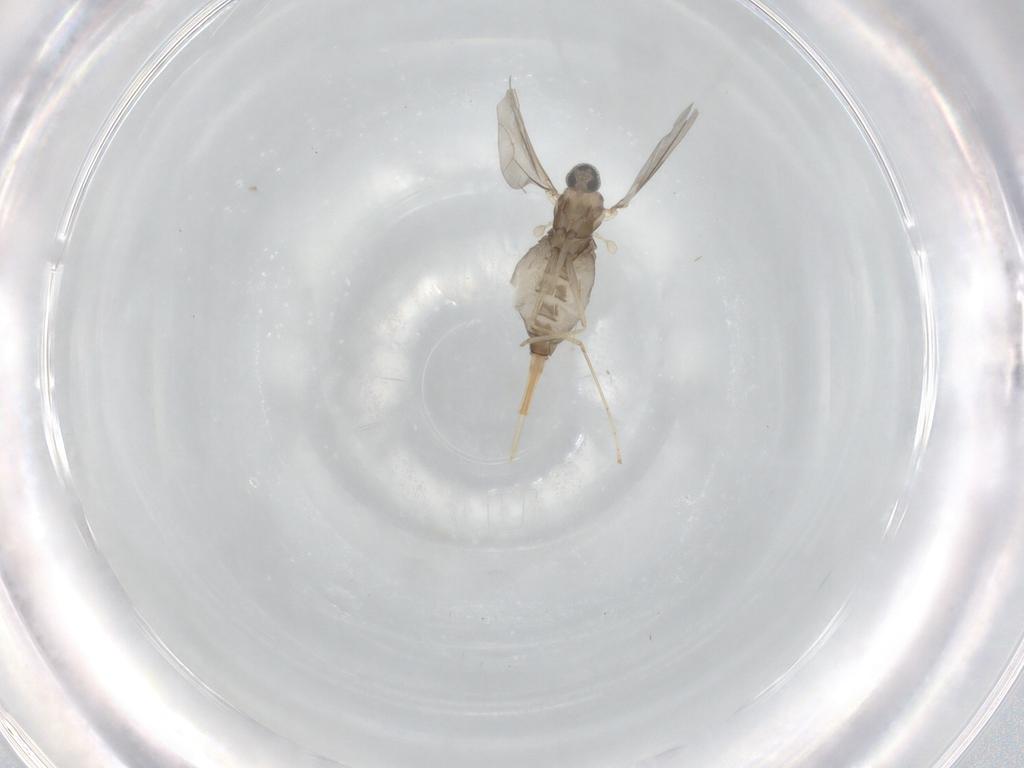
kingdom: Animalia
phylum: Arthropoda
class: Insecta
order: Diptera
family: Cecidomyiidae
